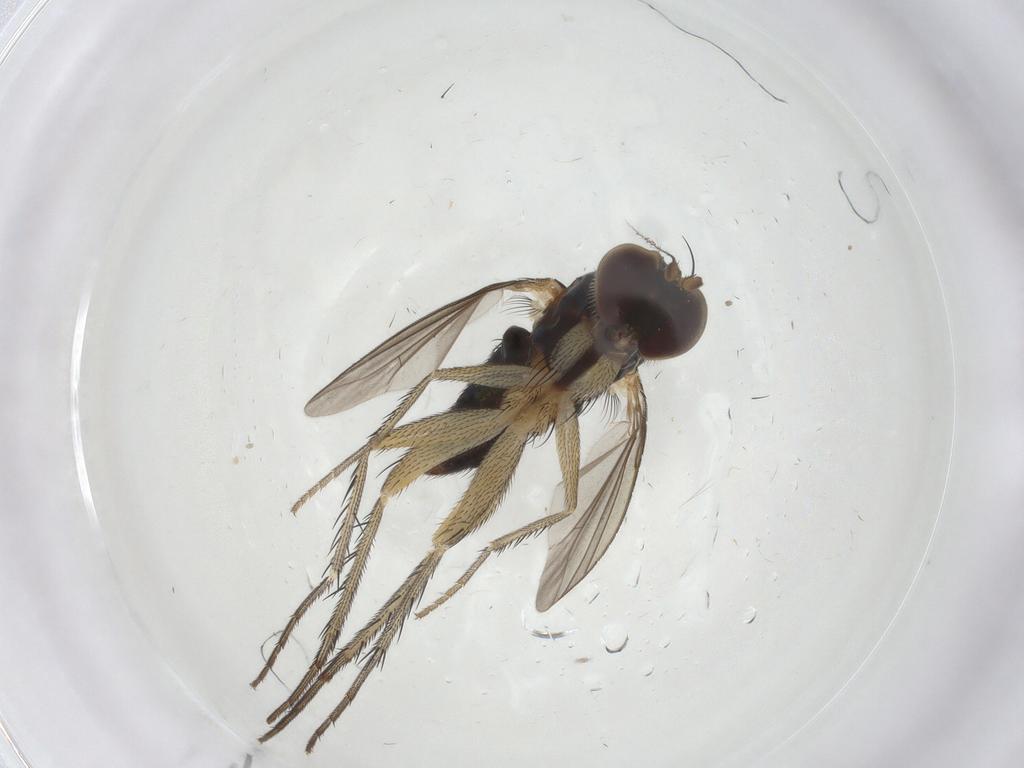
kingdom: Animalia
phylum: Arthropoda
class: Insecta
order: Diptera
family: Dolichopodidae
